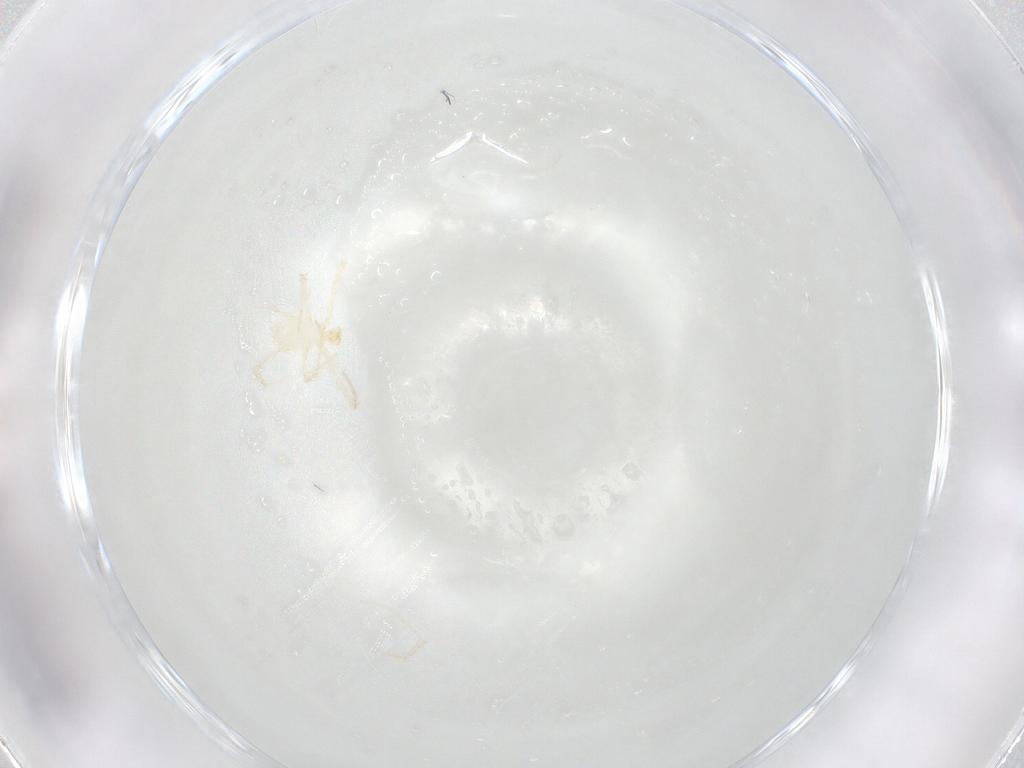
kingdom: Animalia
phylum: Arthropoda
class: Arachnida
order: Trombidiformes
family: Erythraeidae
